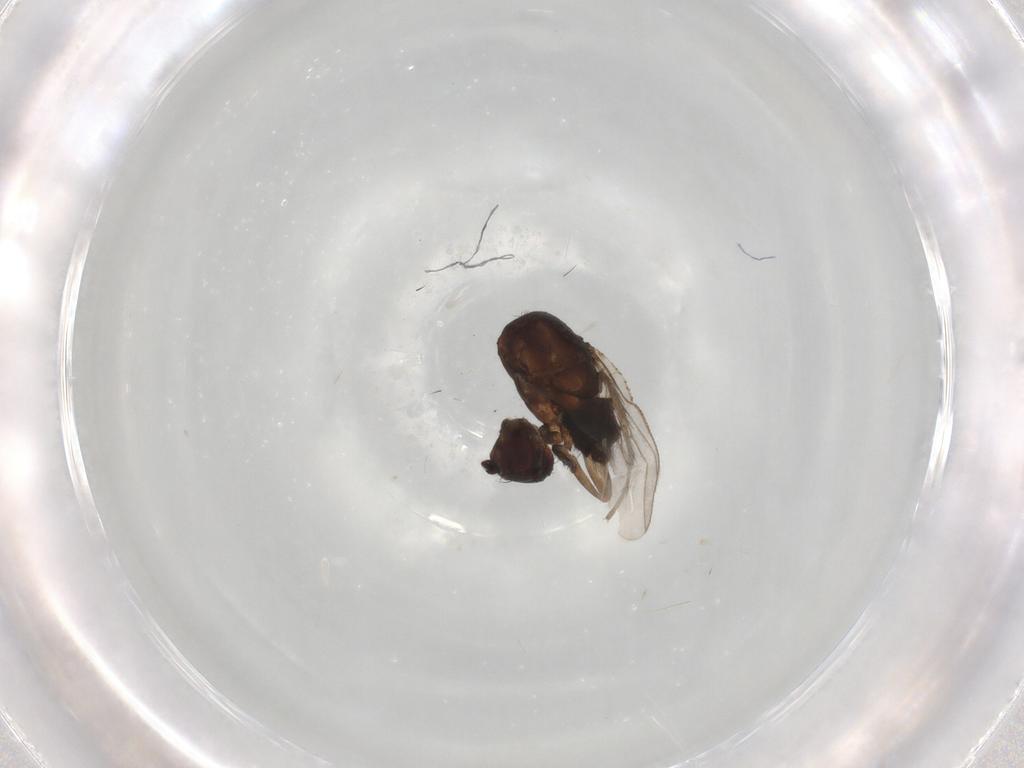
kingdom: Animalia
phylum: Arthropoda
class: Insecta
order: Diptera
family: Sphaeroceridae
